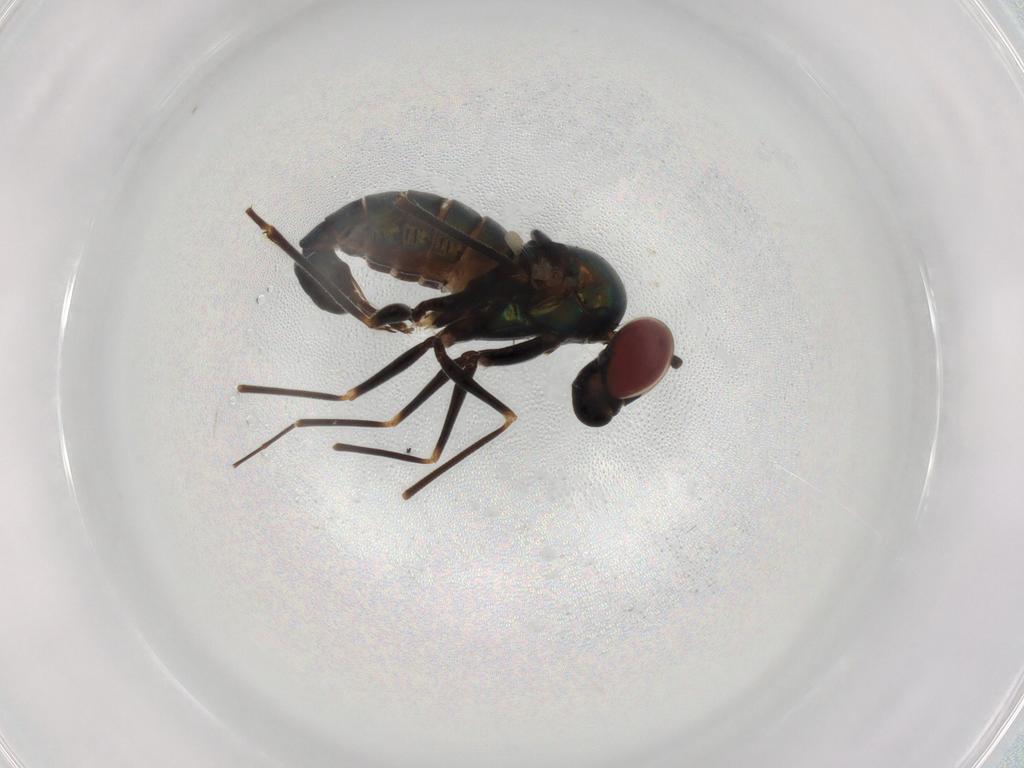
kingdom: Animalia
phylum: Arthropoda
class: Insecta
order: Diptera
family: Dolichopodidae
